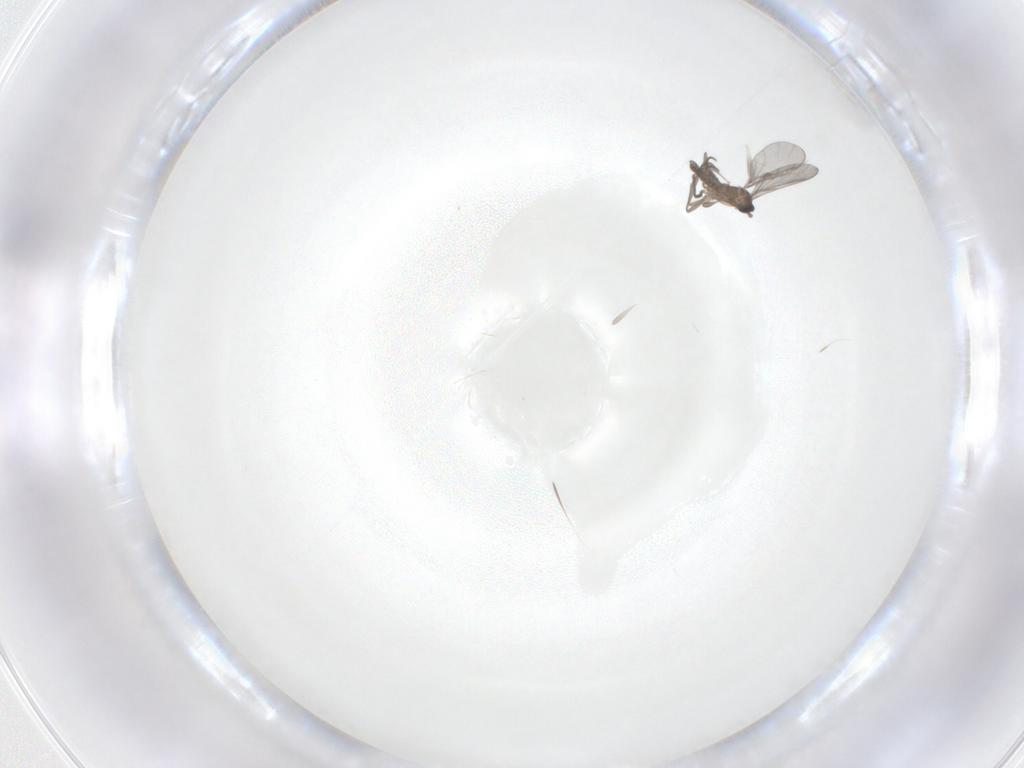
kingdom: Animalia
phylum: Arthropoda
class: Insecta
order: Diptera
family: Sciaridae
